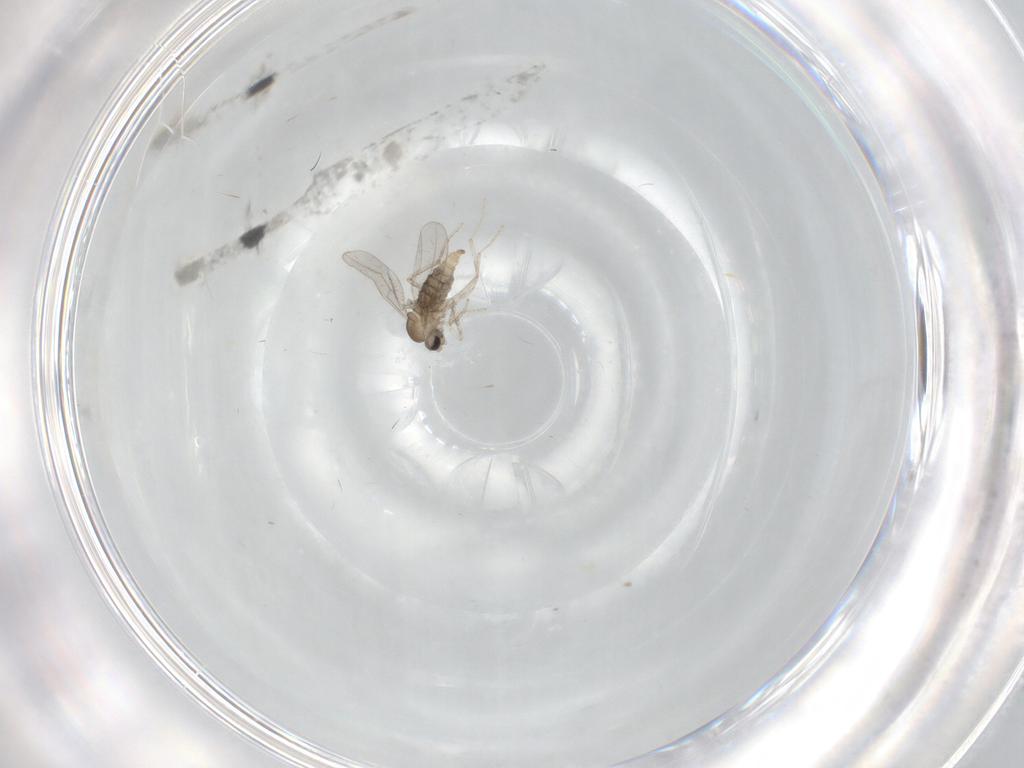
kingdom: Animalia
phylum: Arthropoda
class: Insecta
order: Diptera
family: Cecidomyiidae
